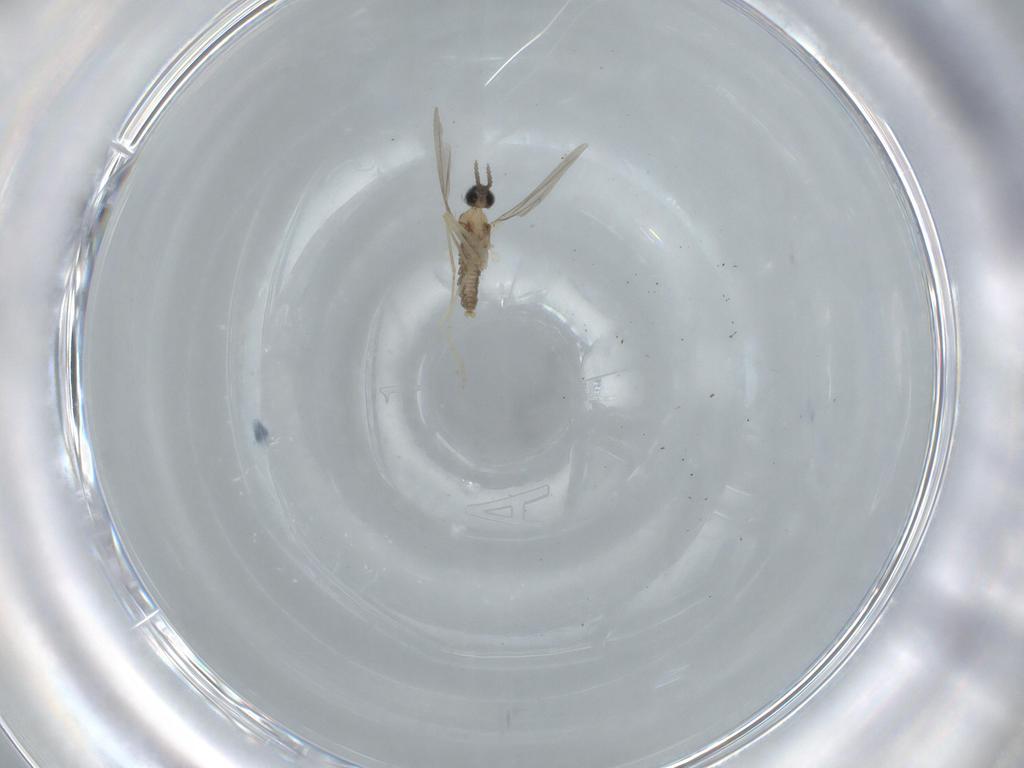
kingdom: Animalia
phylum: Arthropoda
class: Insecta
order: Diptera
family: Cecidomyiidae
